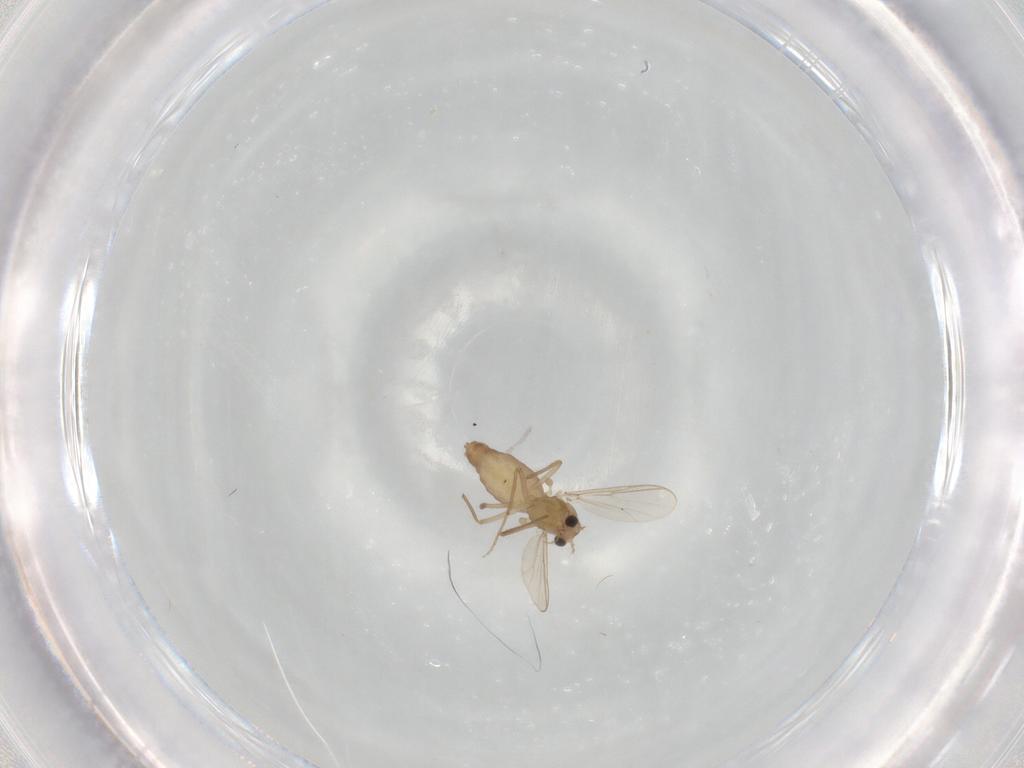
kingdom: Animalia
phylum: Arthropoda
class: Insecta
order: Diptera
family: Chironomidae
